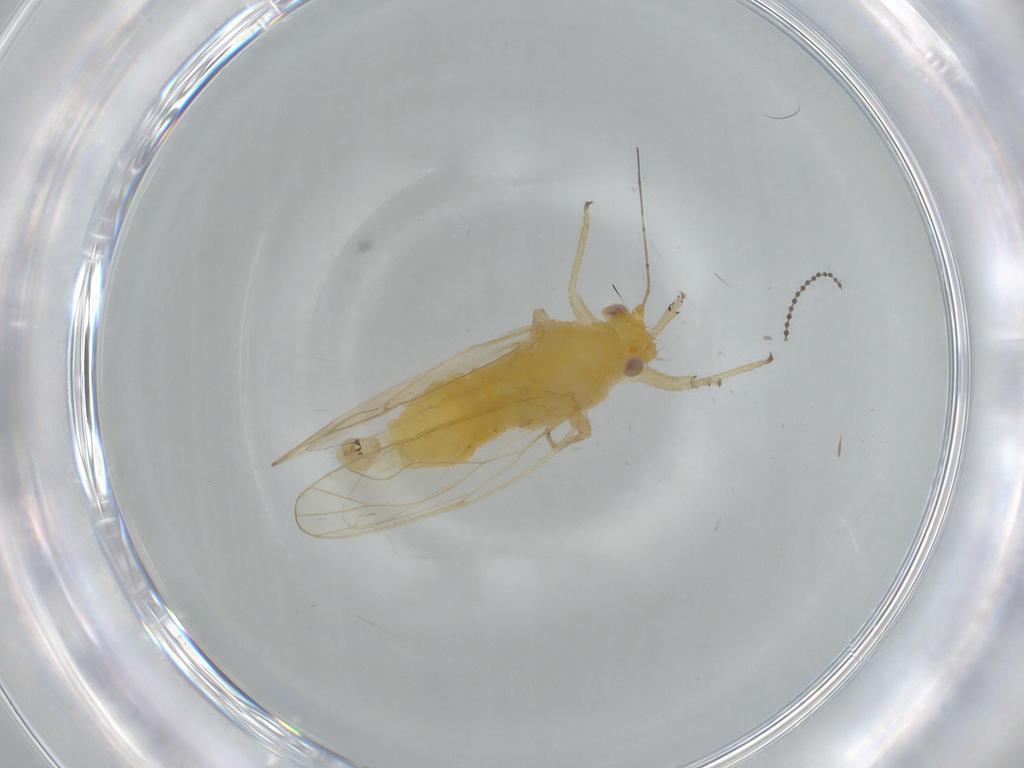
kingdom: Animalia
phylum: Arthropoda
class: Insecta
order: Hemiptera
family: Psyllidae
